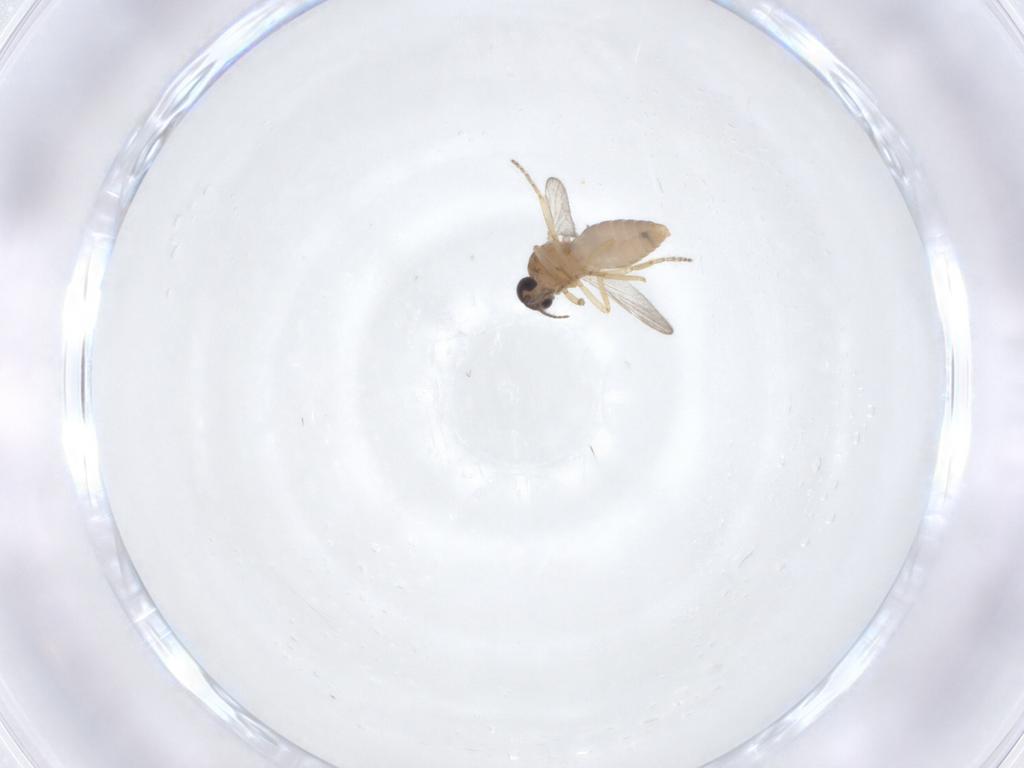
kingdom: Animalia
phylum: Arthropoda
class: Insecta
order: Diptera
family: Ceratopogonidae
